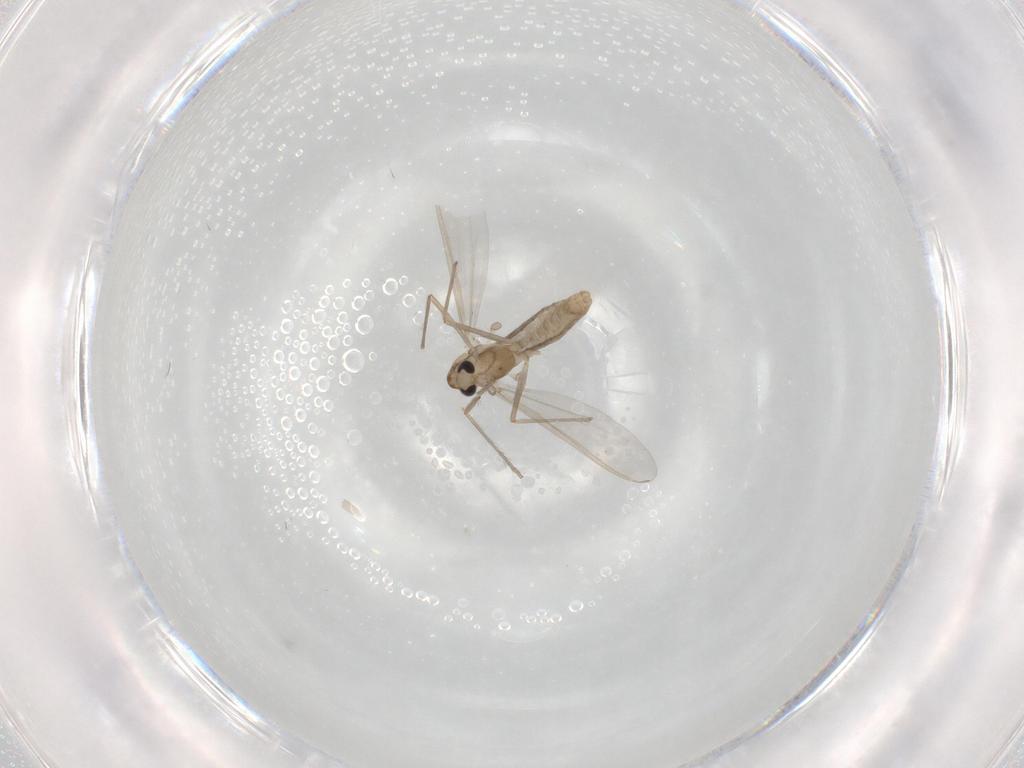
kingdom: Animalia
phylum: Arthropoda
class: Insecta
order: Diptera
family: Chironomidae
